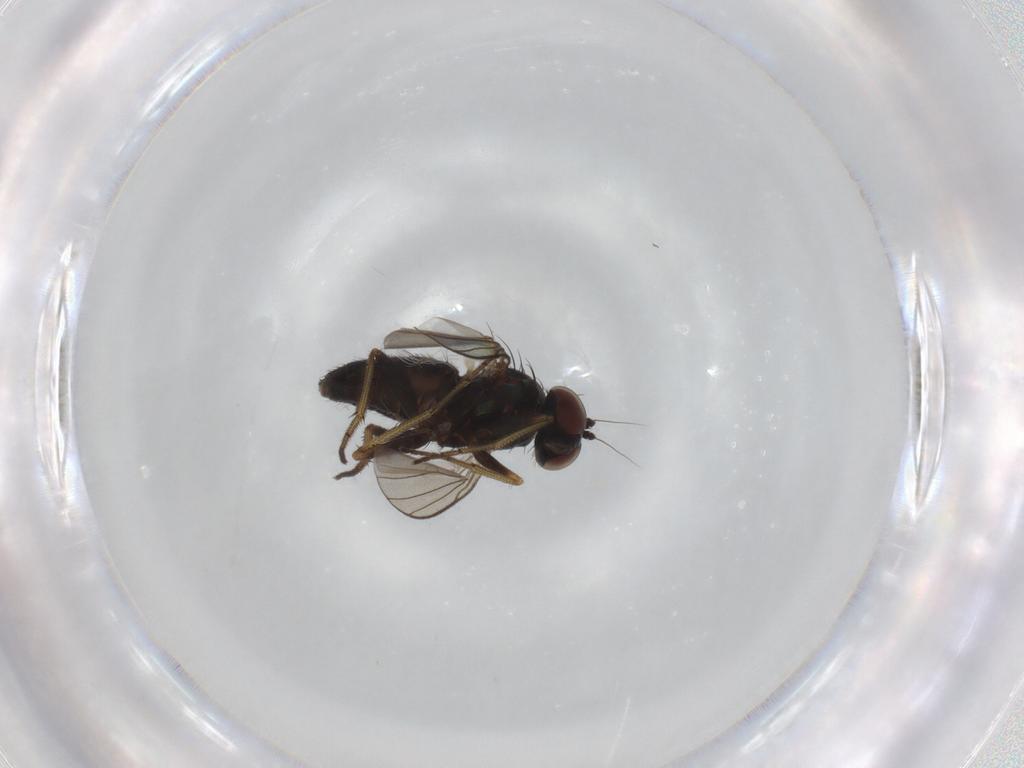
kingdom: Animalia
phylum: Arthropoda
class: Insecta
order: Diptera
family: Dolichopodidae
